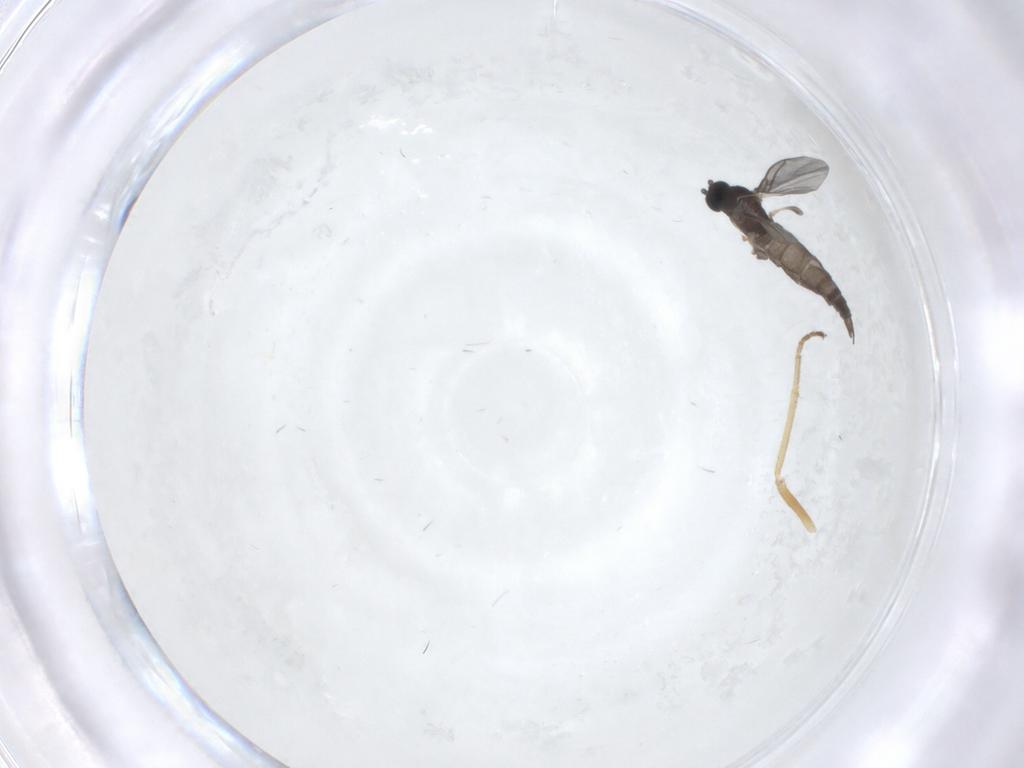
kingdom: Animalia
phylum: Arthropoda
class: Insecta
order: Diptera
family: Hybotidae
